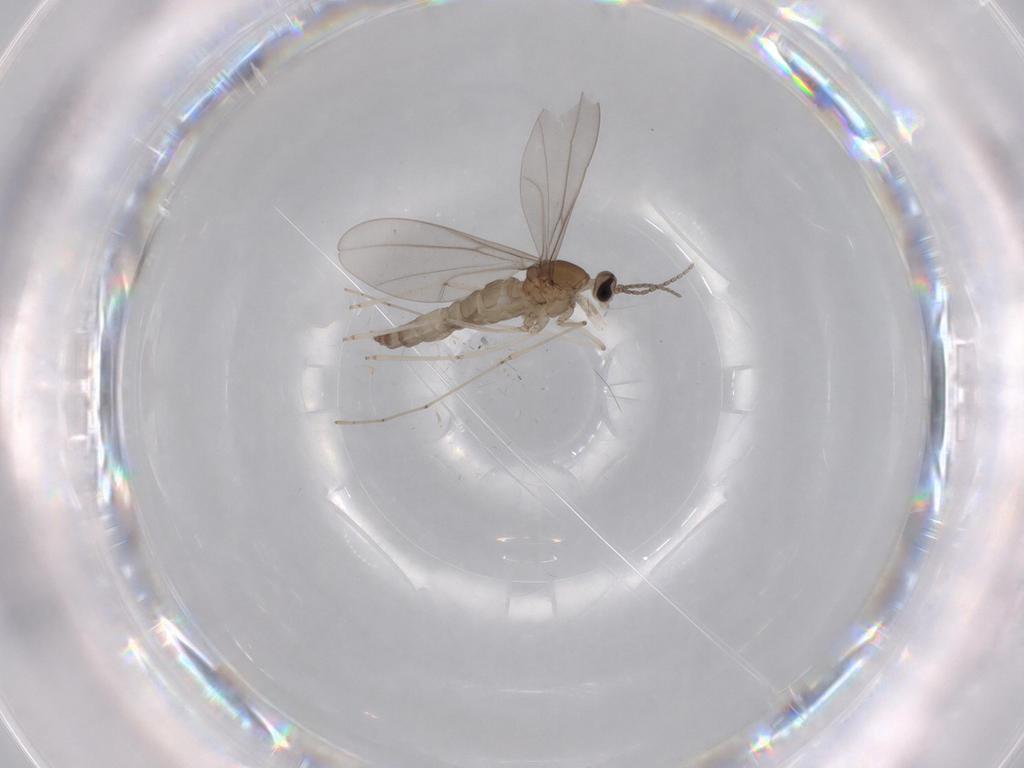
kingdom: Animalia
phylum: Arthropoda
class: Insecta
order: Diptera
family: Cecidomyiidae
